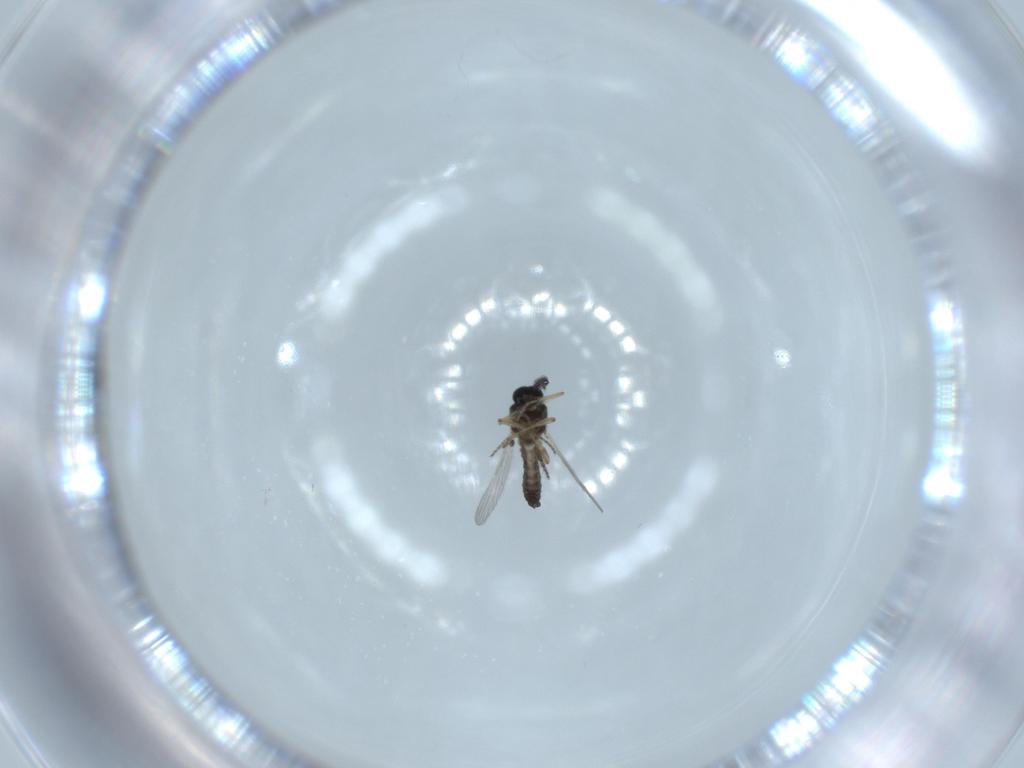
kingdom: Animalia
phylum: Arthropoda
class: Insecta
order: Diptera
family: Ceratopogonidae
